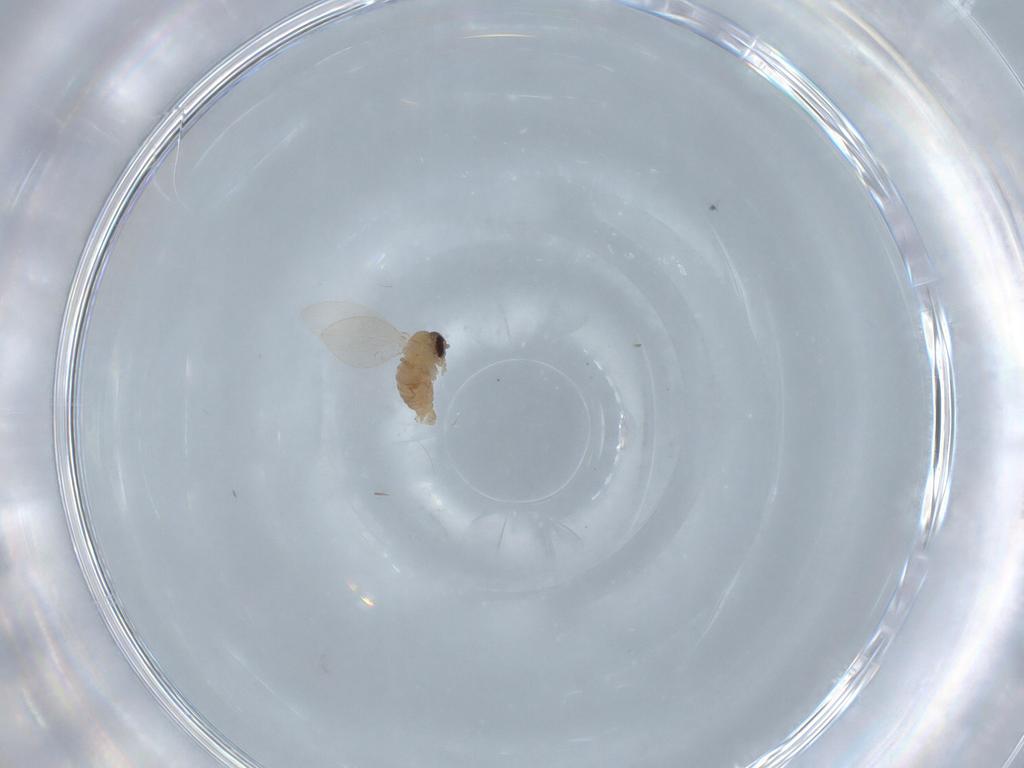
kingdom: Animalia
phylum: Arthropoda
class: Insecta
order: Diptera
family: Psychodidae
